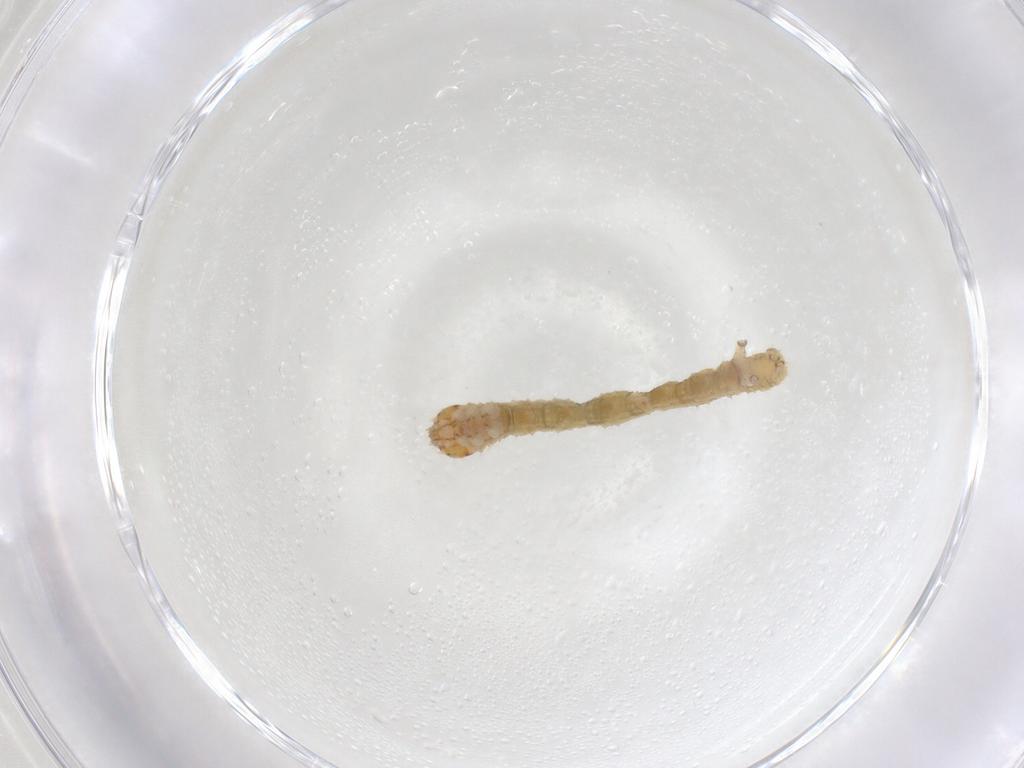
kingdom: Animalia
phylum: Arthropoda
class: Insecta
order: Lepidoptera
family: Geometridae
